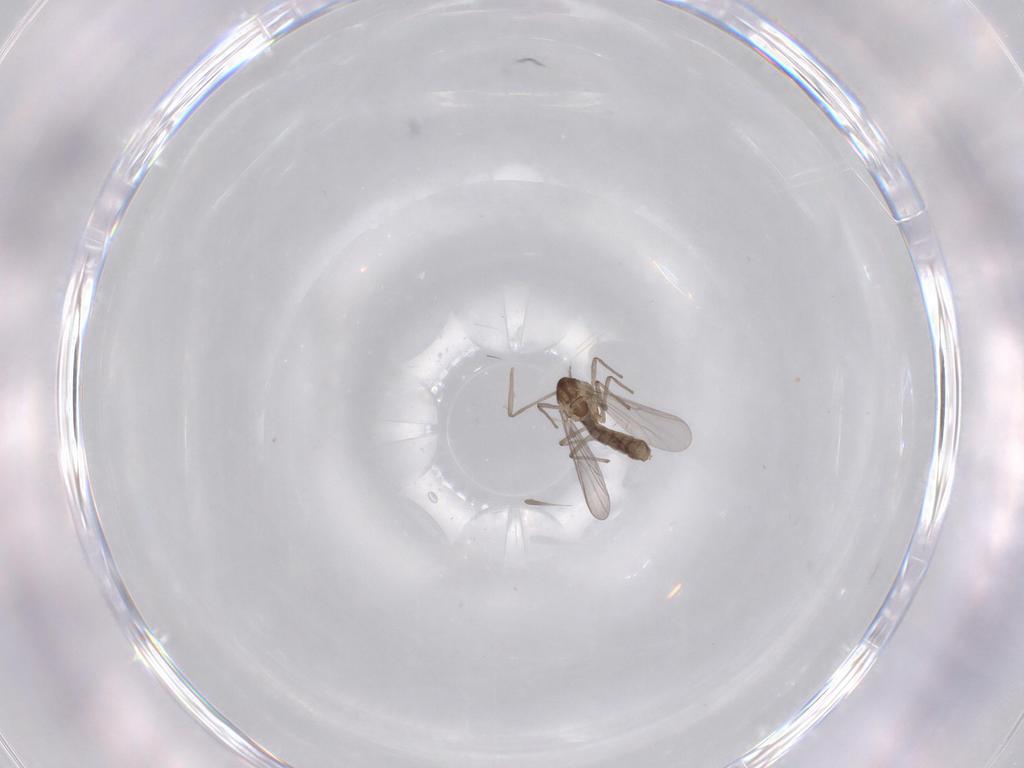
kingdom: Animalia
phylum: Arthropoda
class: Insecta
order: Diptera
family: Chironomidae
